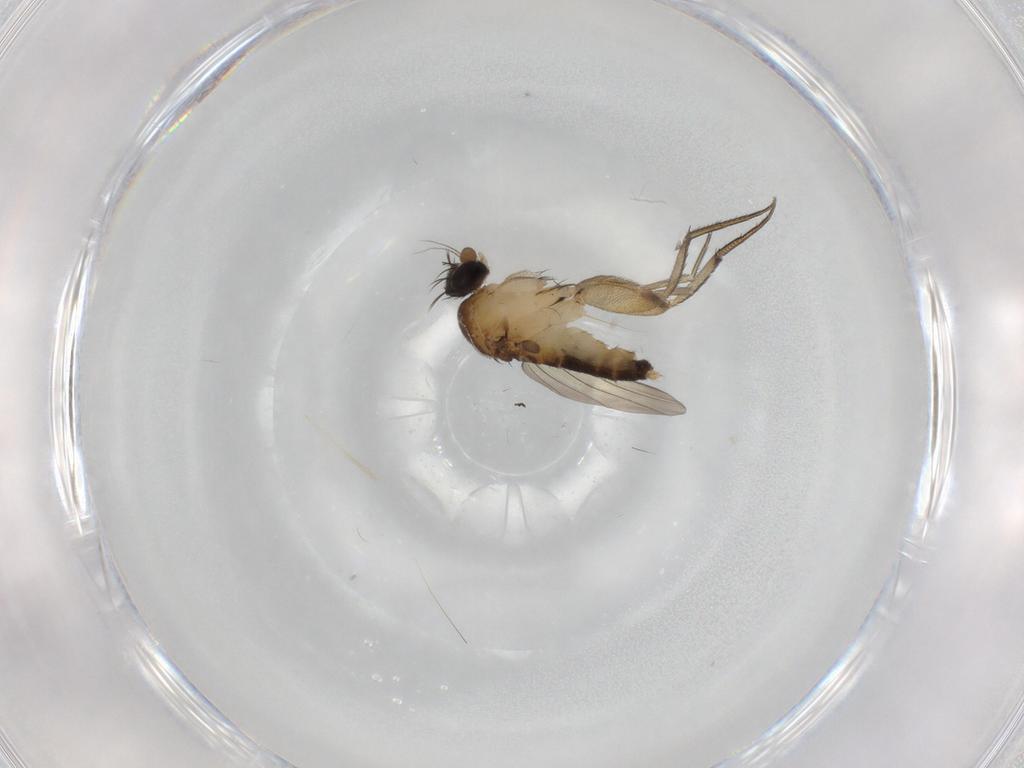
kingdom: Animalia
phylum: Arthropoda
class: Insecta
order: Diptera
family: Phoridae
